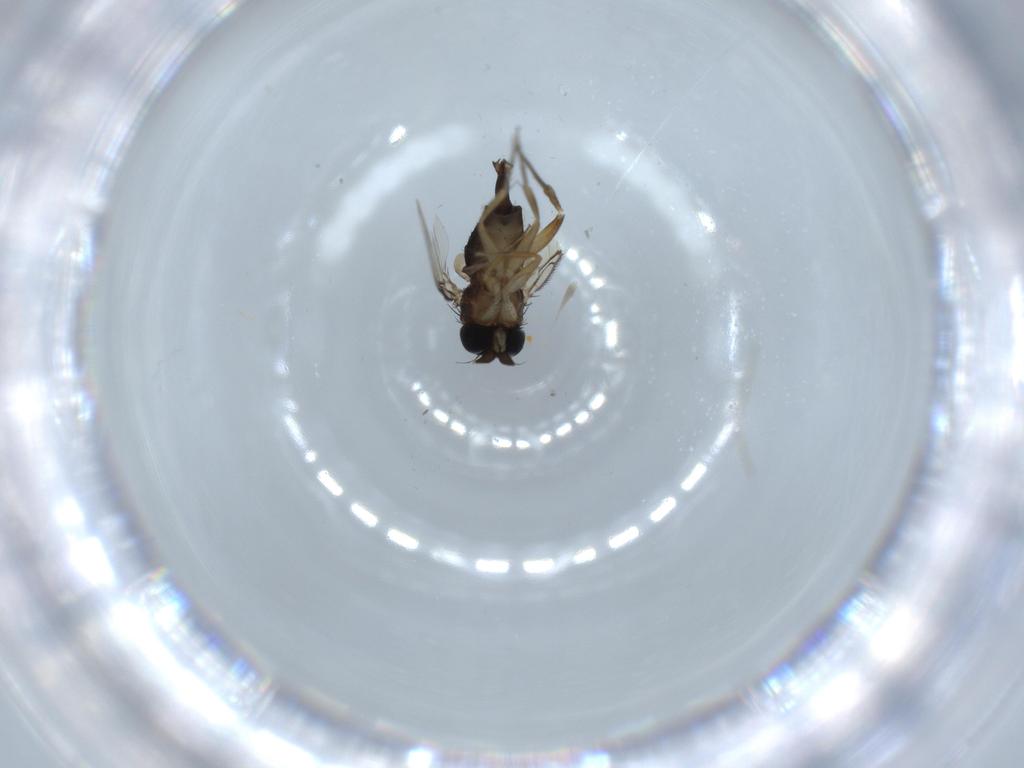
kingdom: Animalia
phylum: Arthropoda
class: Insecta
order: Diptera
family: Phoridae
